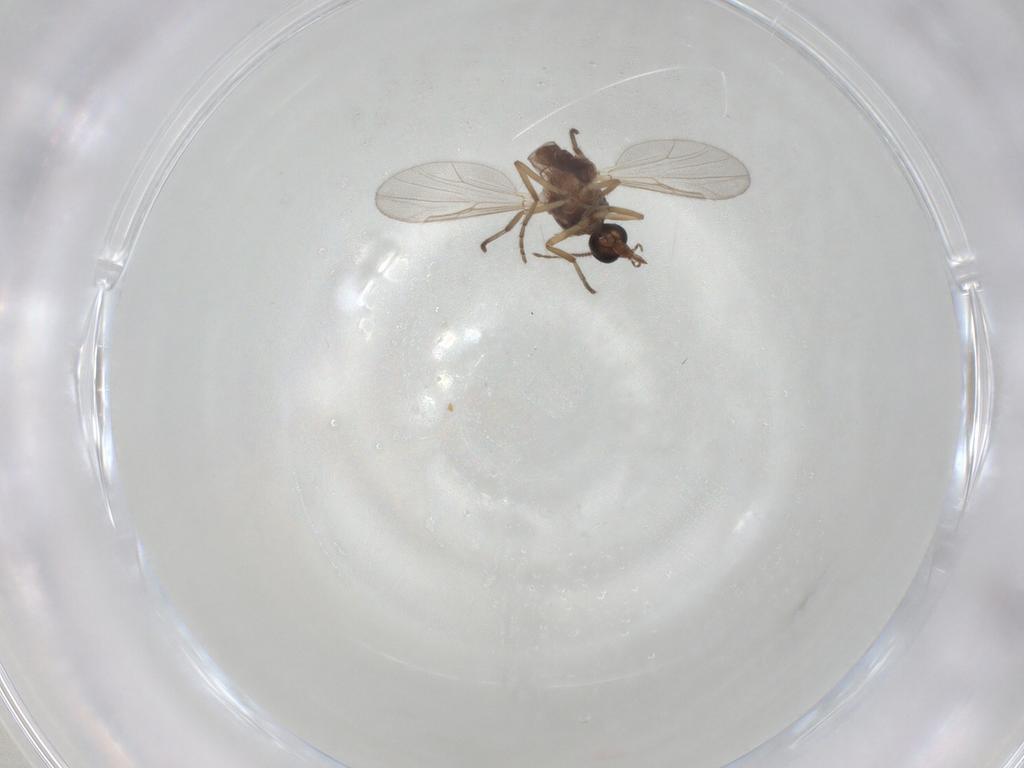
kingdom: Animalia
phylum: Arthropoda
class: Insecta
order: Diptera
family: Ceratopogonidae
